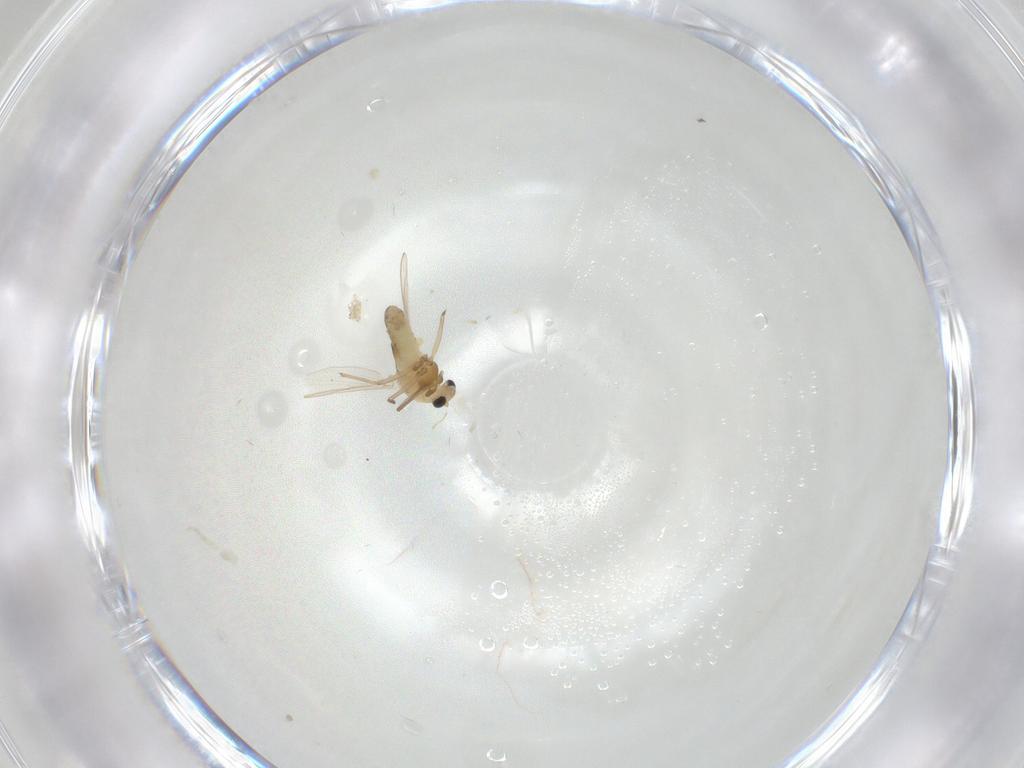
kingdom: Animalia
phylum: Arthropoda
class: Insecta
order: Diptera
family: Chironomidae
